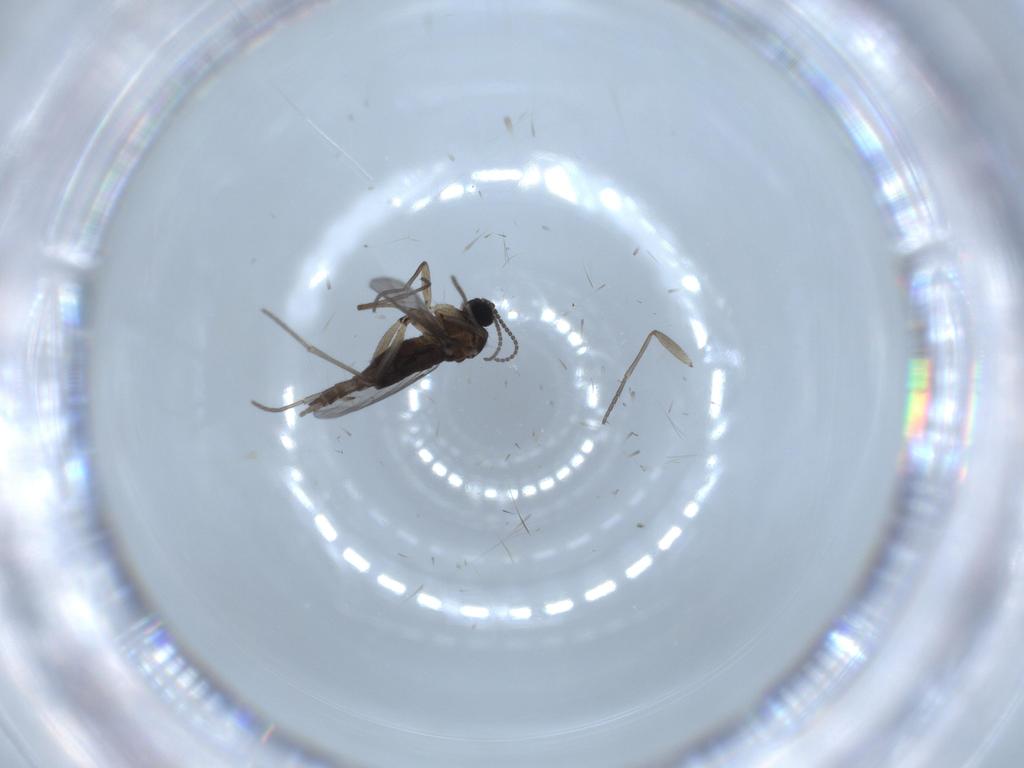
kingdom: Animalia
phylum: Arthropoda
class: Insecta
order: Diptera
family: Sciaridae
